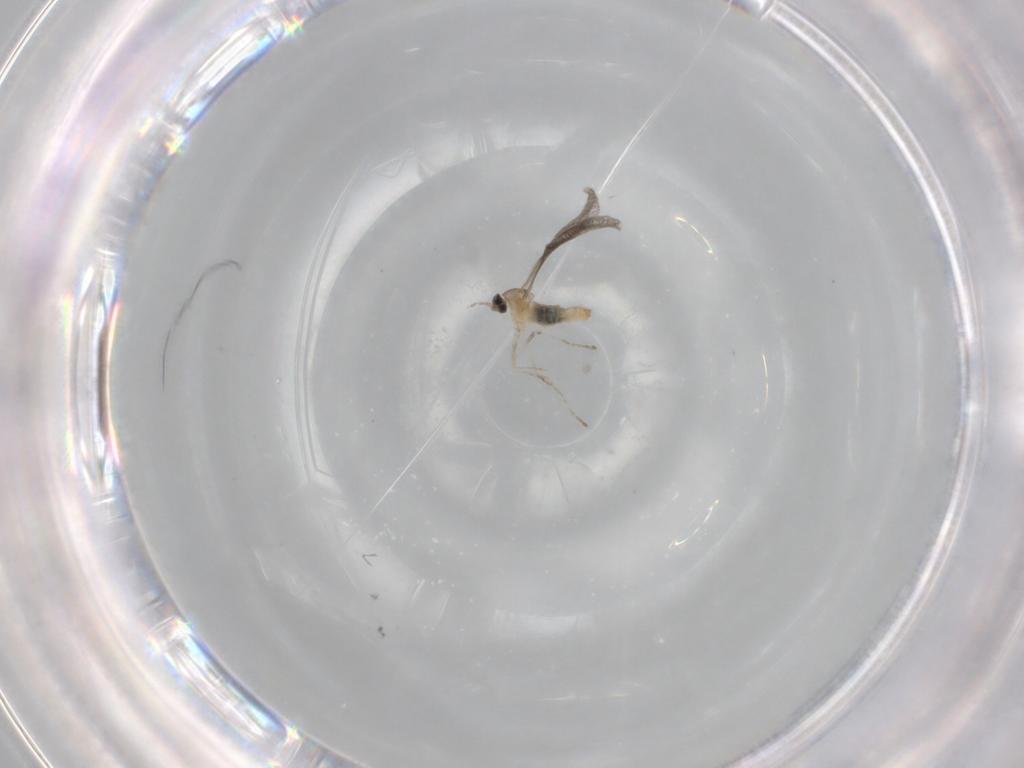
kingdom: Animalia
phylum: Arthropoda
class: Insecta
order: Diptera
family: Cecidomyiidae
